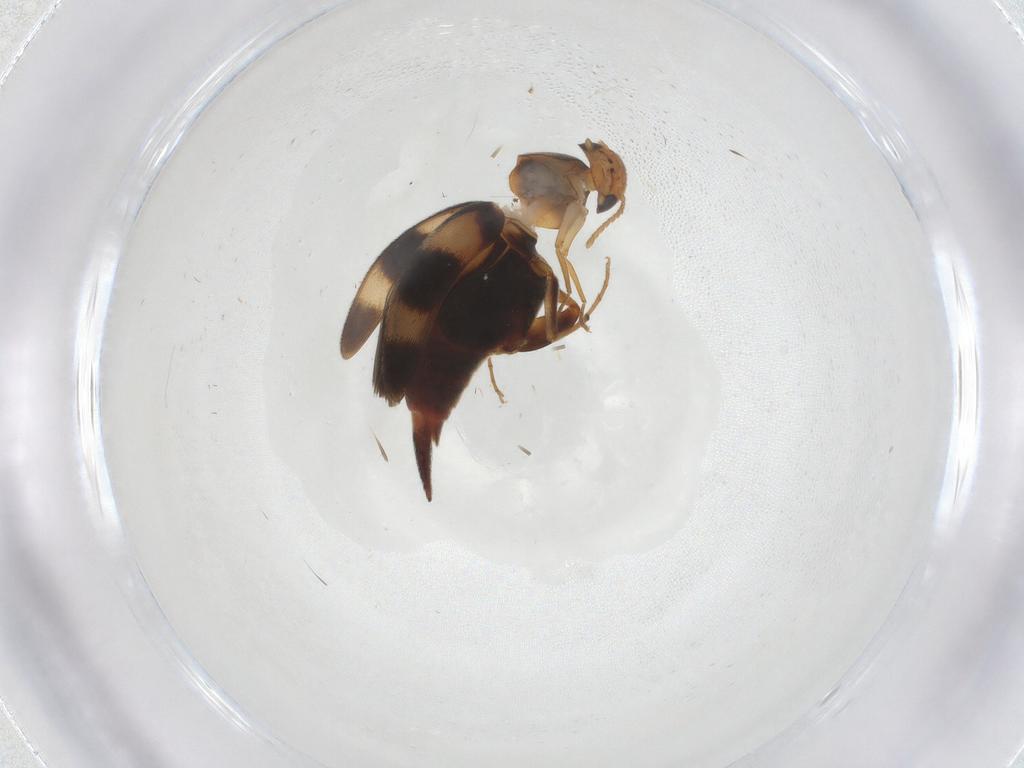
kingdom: Animalia
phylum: Arthropoda
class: Insecta
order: Coleoptera
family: Mordellidae
